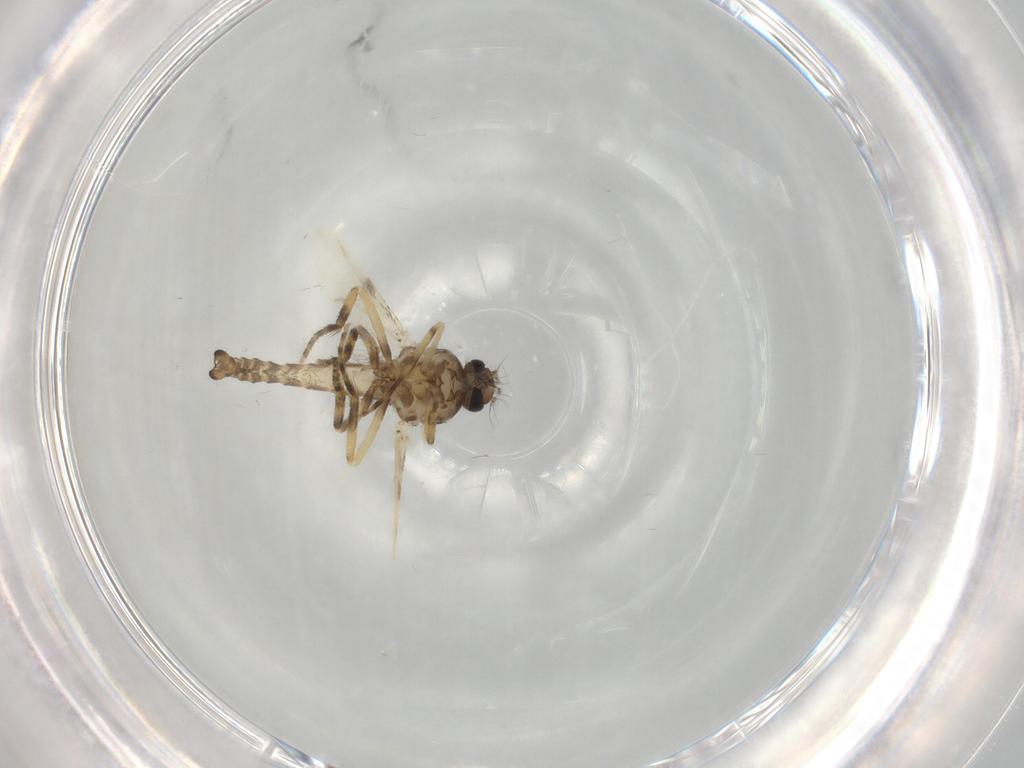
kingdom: Animalia
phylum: Arthropoda
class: Insecta
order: Diptera
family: Ceratopogonidae
